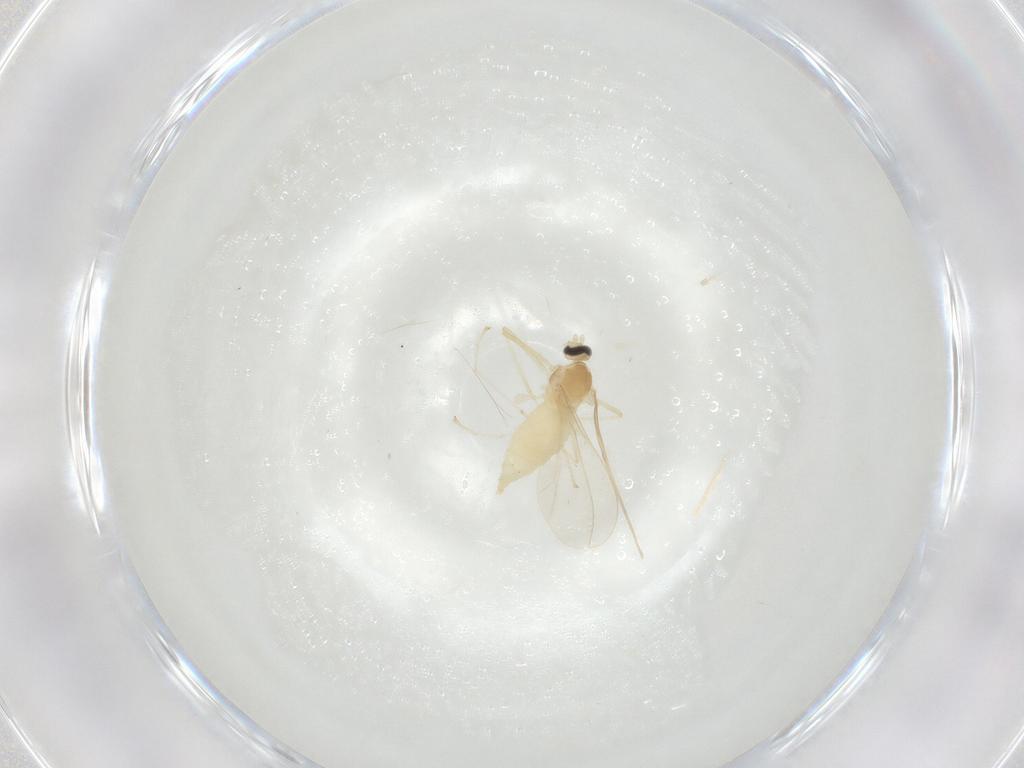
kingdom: Animalia
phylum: Arthropoda
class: Insecta
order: Diptera
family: Cecidomyiidae
